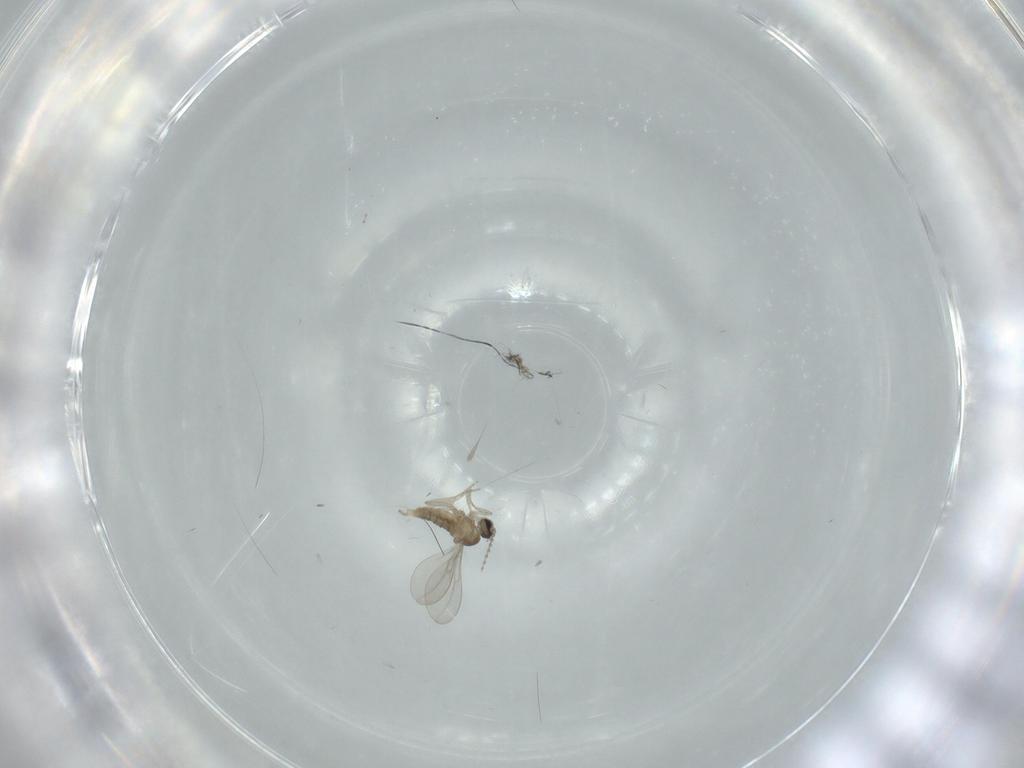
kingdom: Animalia
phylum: Arthropoda
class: Insecta
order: Diptera
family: Cecidomyiidae
